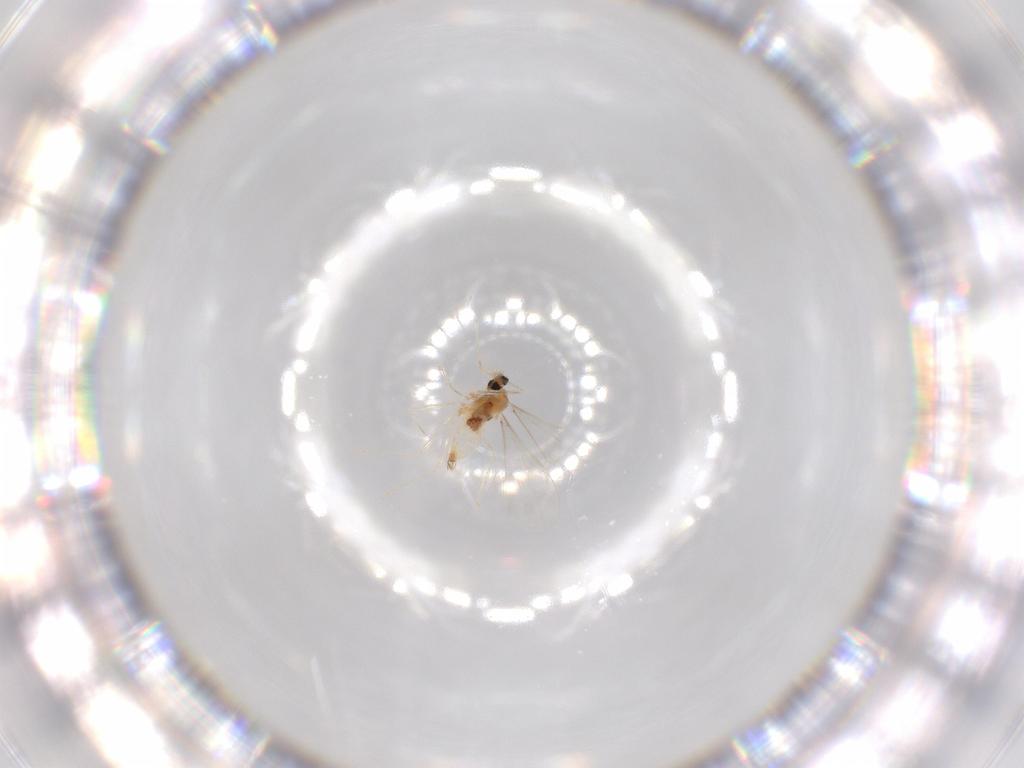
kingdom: Animalia
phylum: Arthropoda
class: Insecta
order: Diptera
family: Cecidomyiidae
